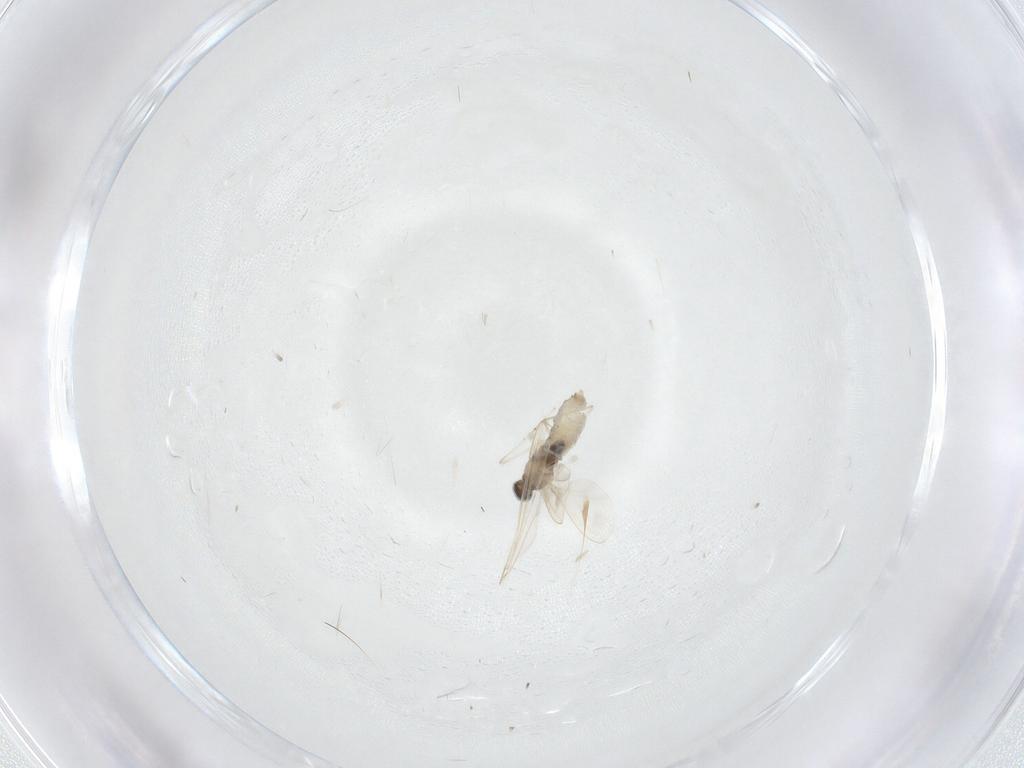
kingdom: Animalia
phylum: Arthropoda
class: Insecta
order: Diptera
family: Cecidomyiidae
